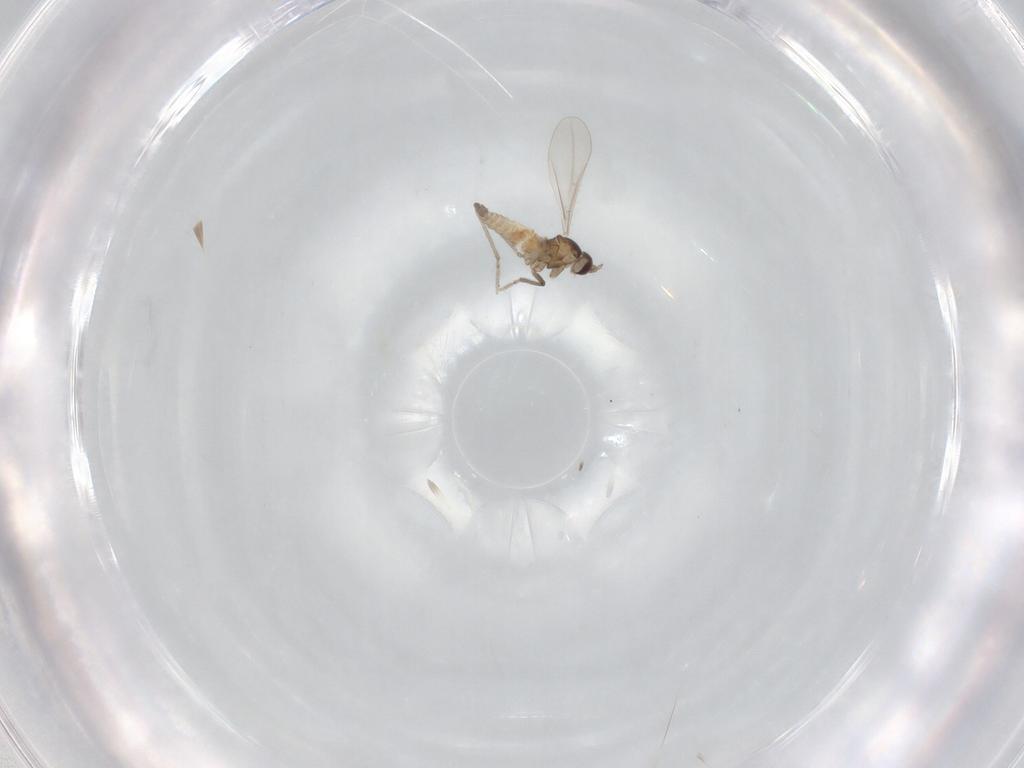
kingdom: Animalia
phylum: Arthropoda
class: Insecta
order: Diptera
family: Cecidomyiidae
